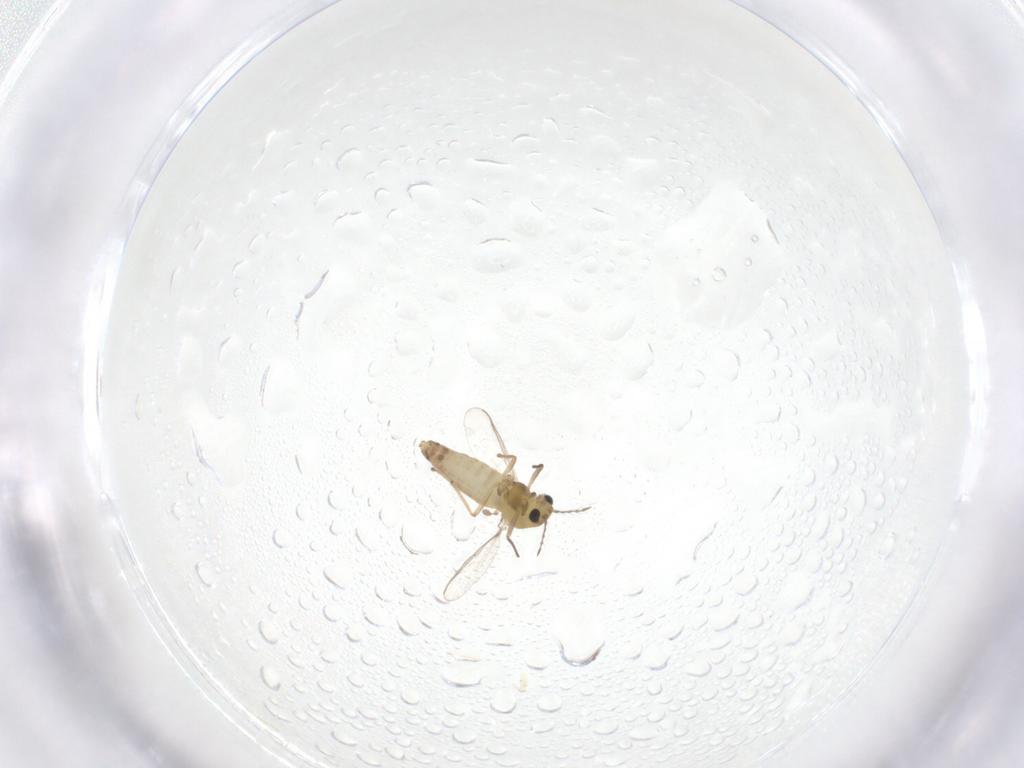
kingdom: Animalia
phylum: Arthropoda
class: Insecta
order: Diptera
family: Chironomidae
